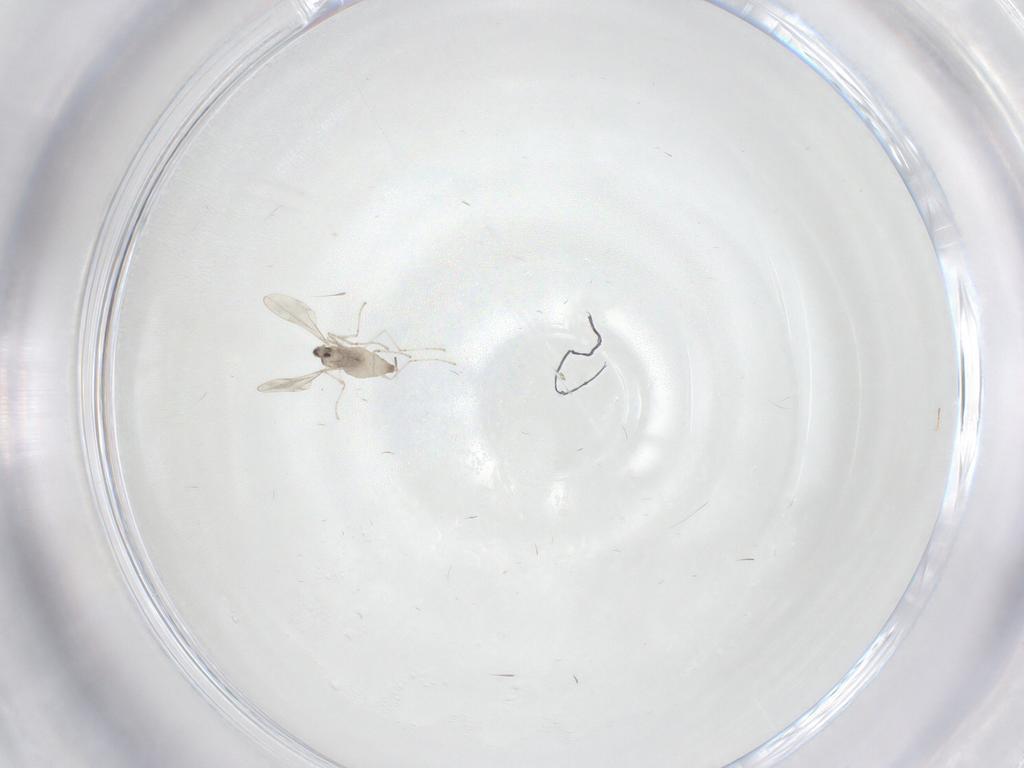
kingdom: Animalia
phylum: Arthropoda
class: Insecta
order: Diptera
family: Cecidomyiidae
